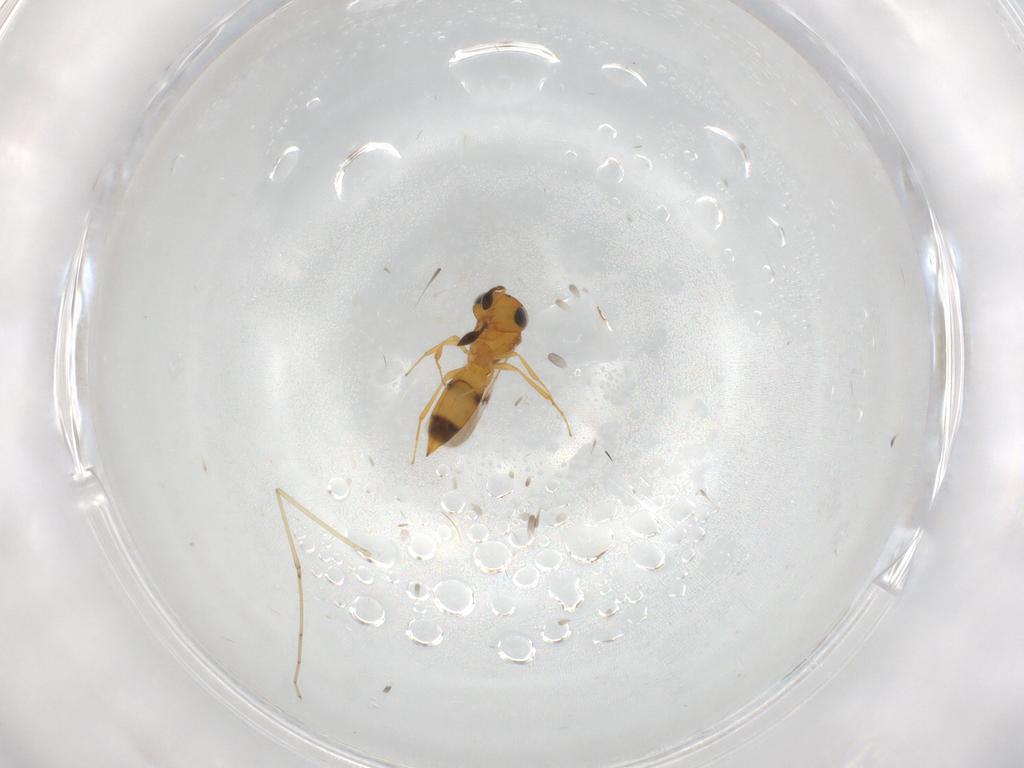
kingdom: Animalia
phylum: Arthropoda
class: Insecta
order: Hymenoptera
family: Scelionidae
